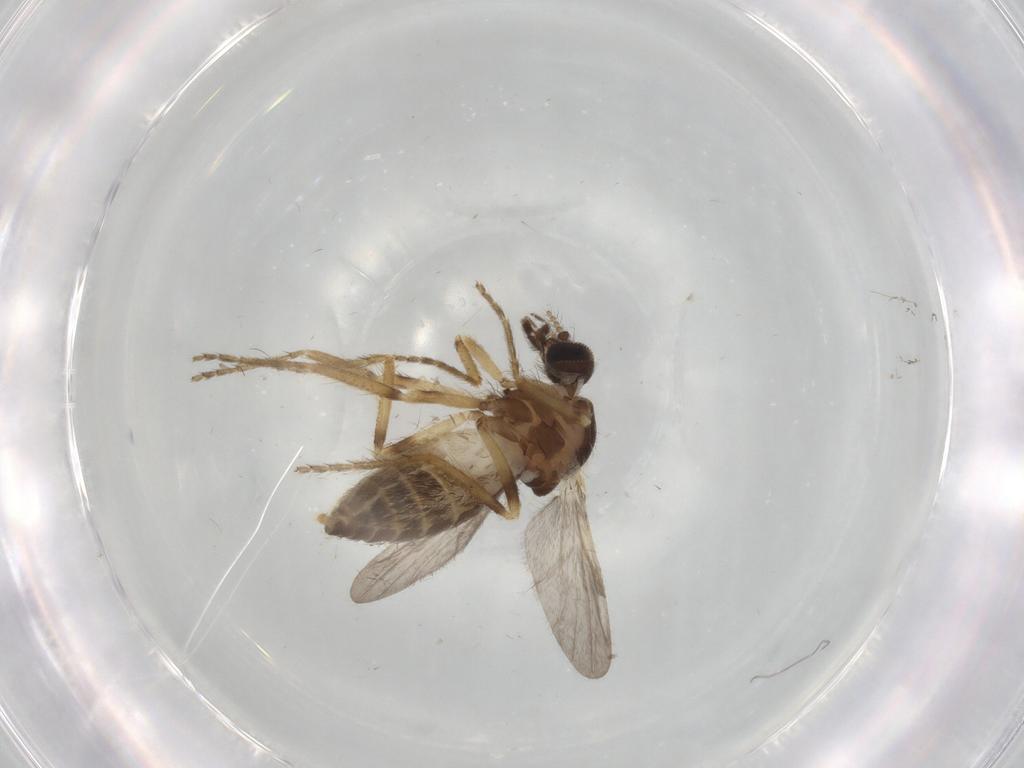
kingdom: Animalia
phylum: Arthropoda
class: Insecta
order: Diptera
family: Ceratopogonidae
